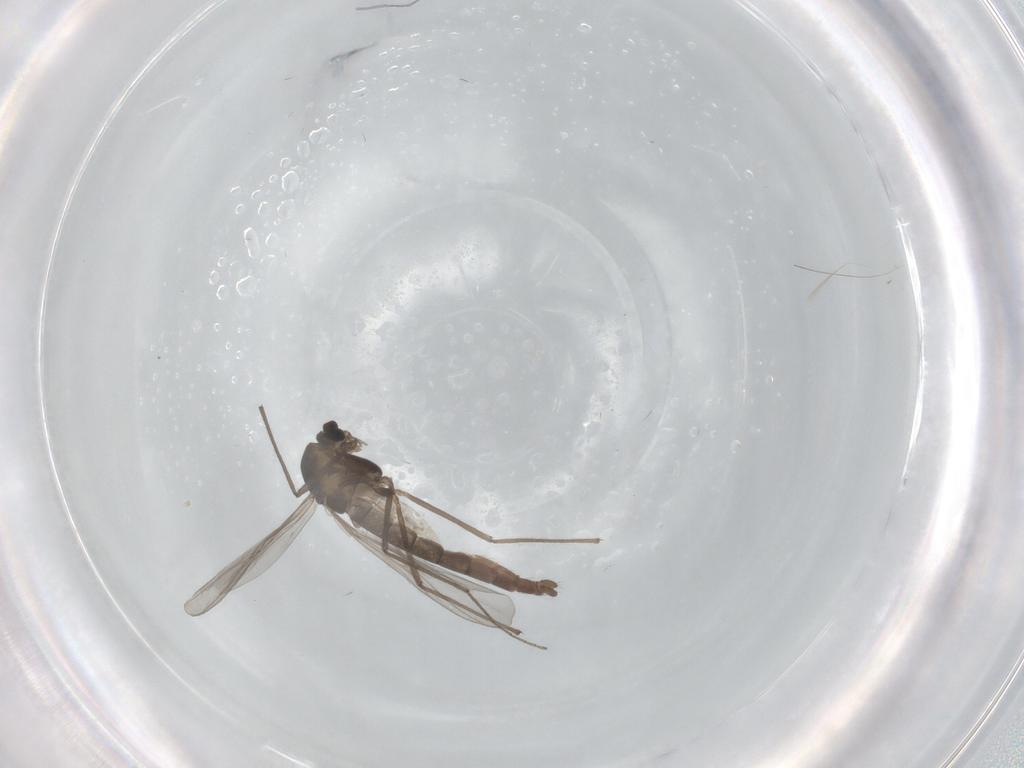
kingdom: Animalia
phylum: Arthropoda
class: Insecta
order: Diptera
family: Chironomidae
